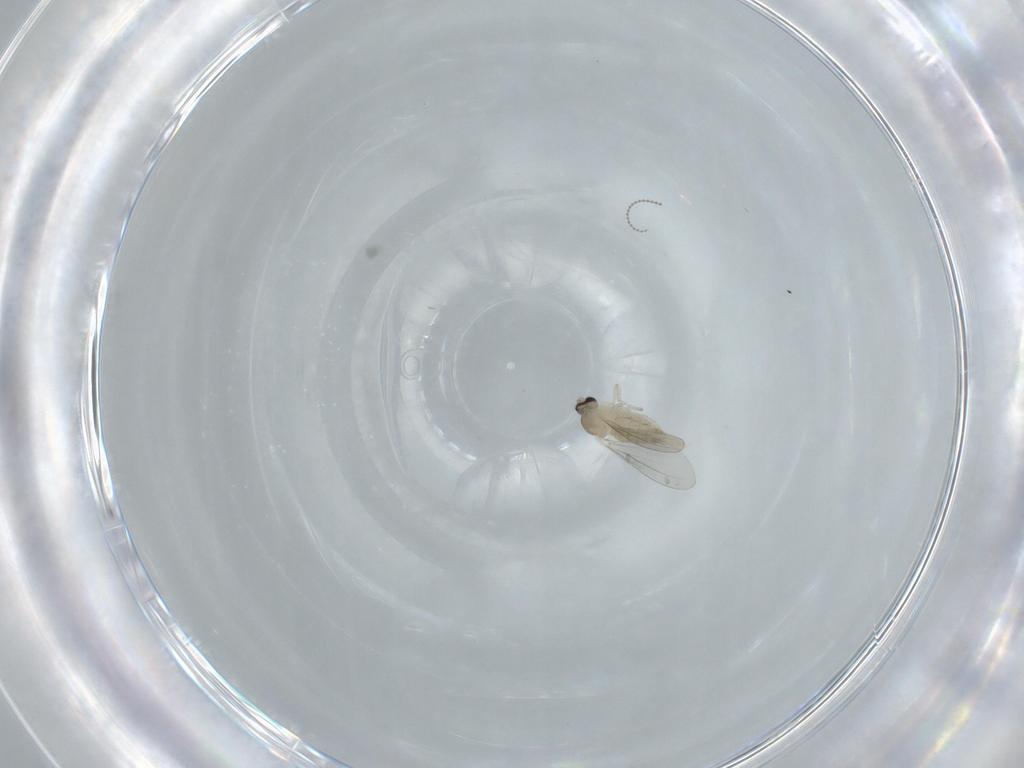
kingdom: Animalia
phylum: Arthropoda
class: Insecta
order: Diptera
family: Cecidomyiidae
